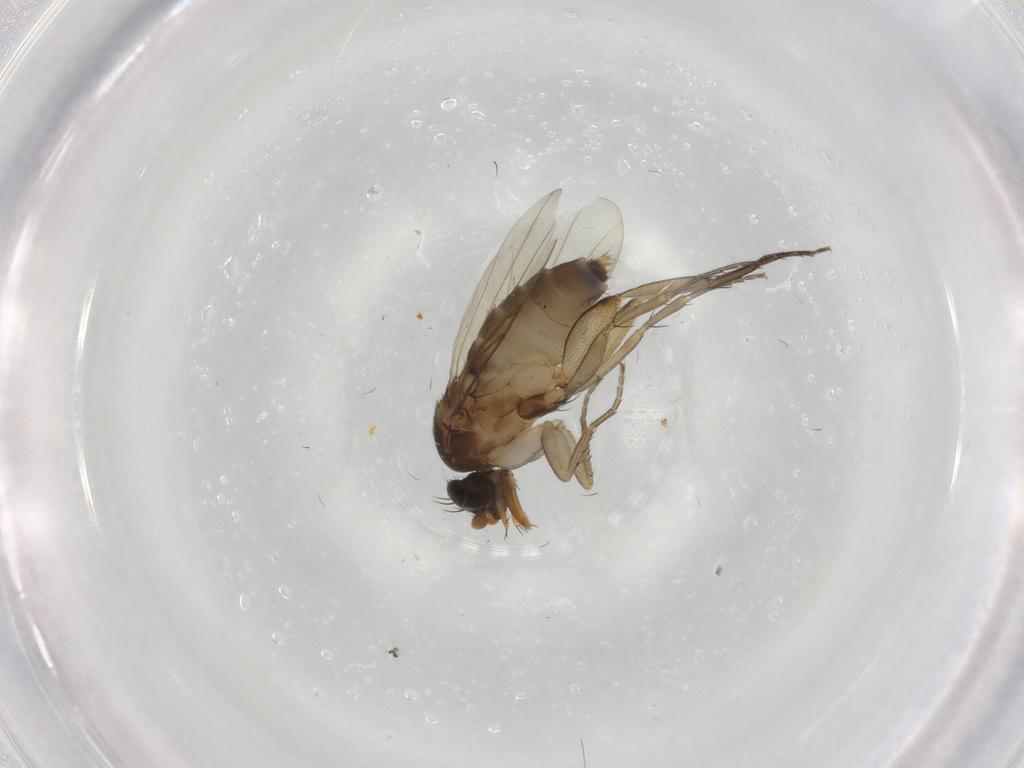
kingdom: Animalia
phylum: Arthropoda
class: Insecta
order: Diptera
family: Phoridae
